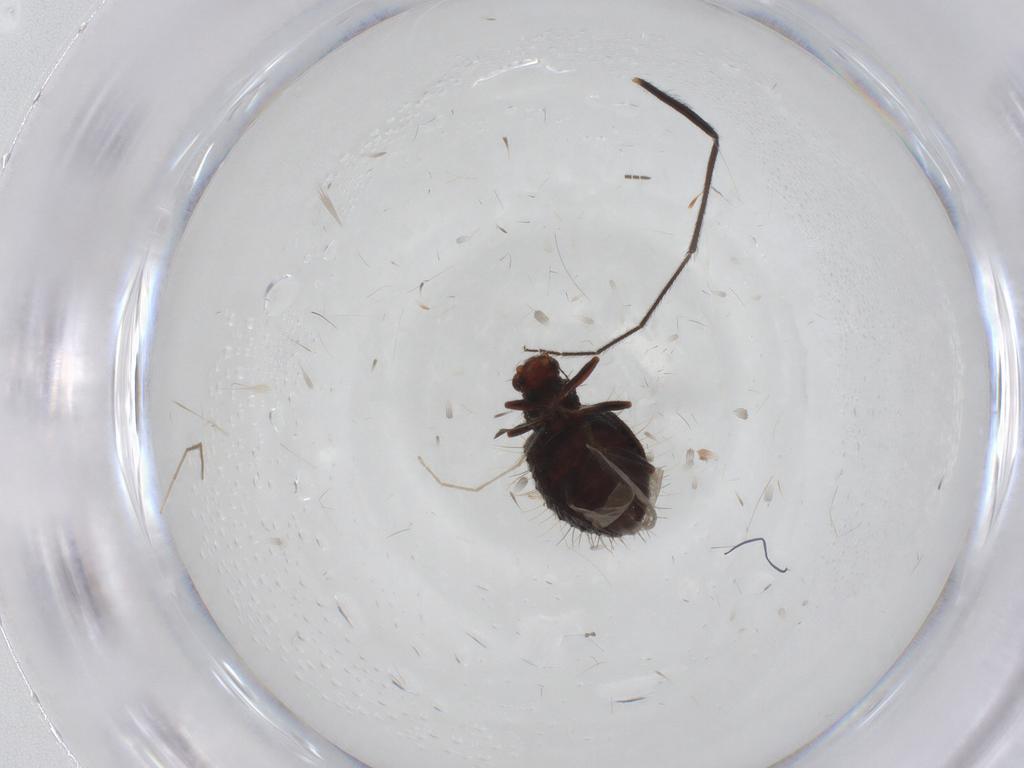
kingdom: Animalia
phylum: Arthropoda
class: Insecta
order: Coleoptera
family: Latridiidae
